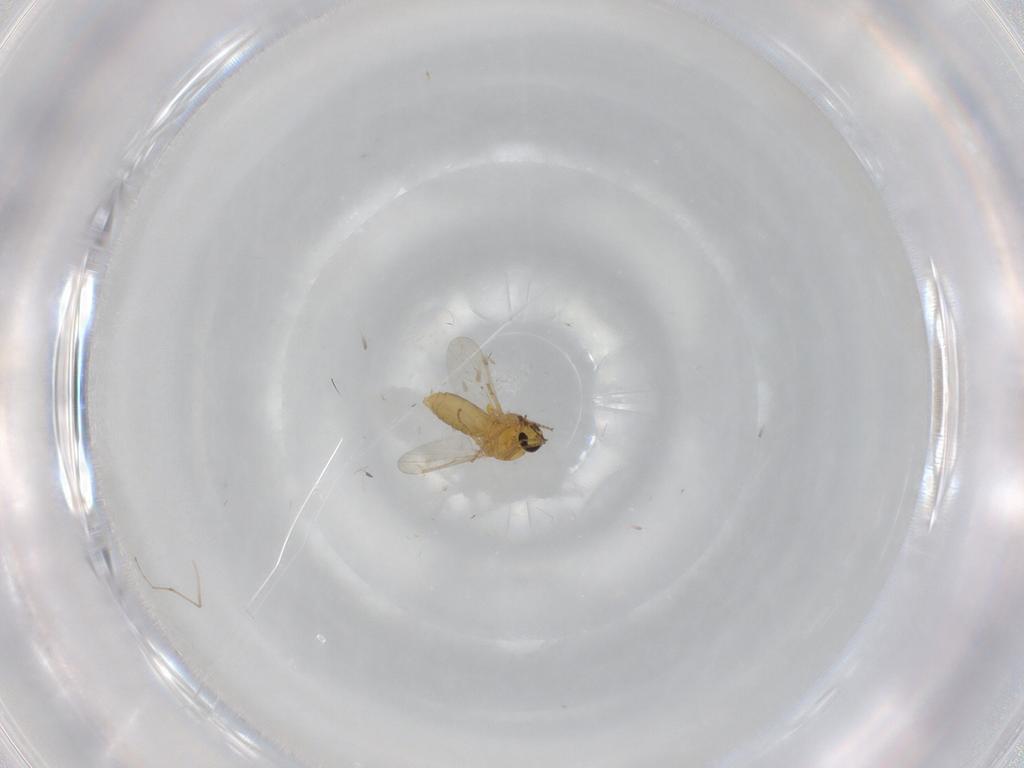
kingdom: Animalia
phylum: Arthropoda
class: Insecta
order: Diptera
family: Ceratopogonidae
